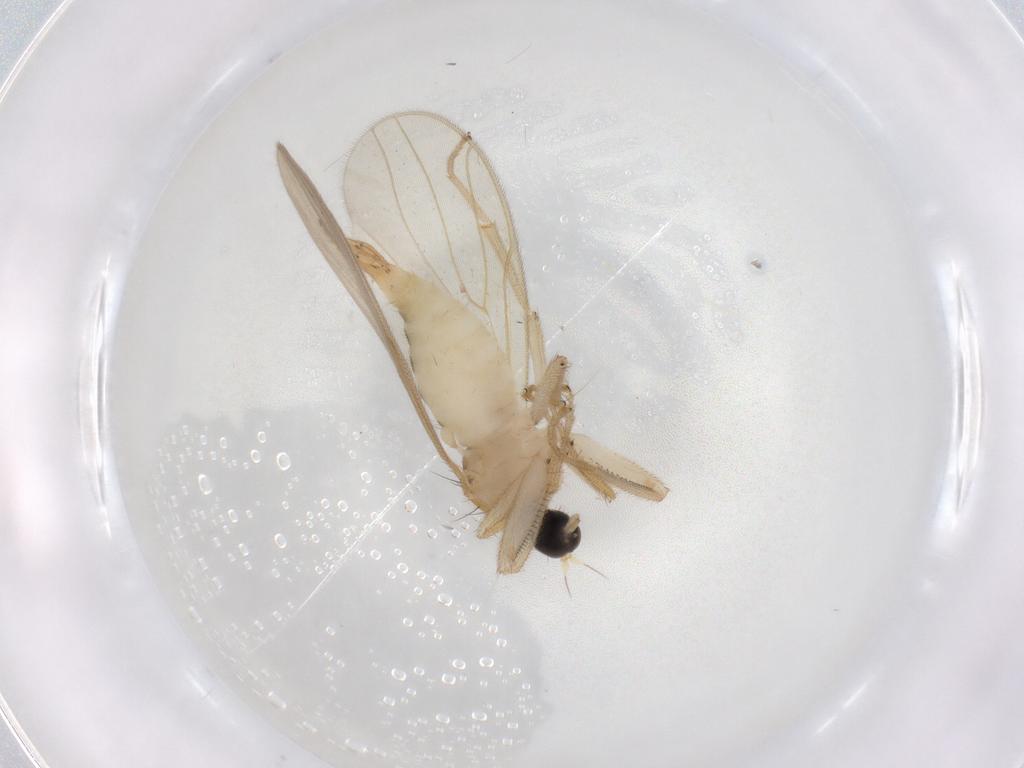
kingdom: Animalia
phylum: Arthropoda
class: Insecta
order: Diptera
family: Hybotidae
